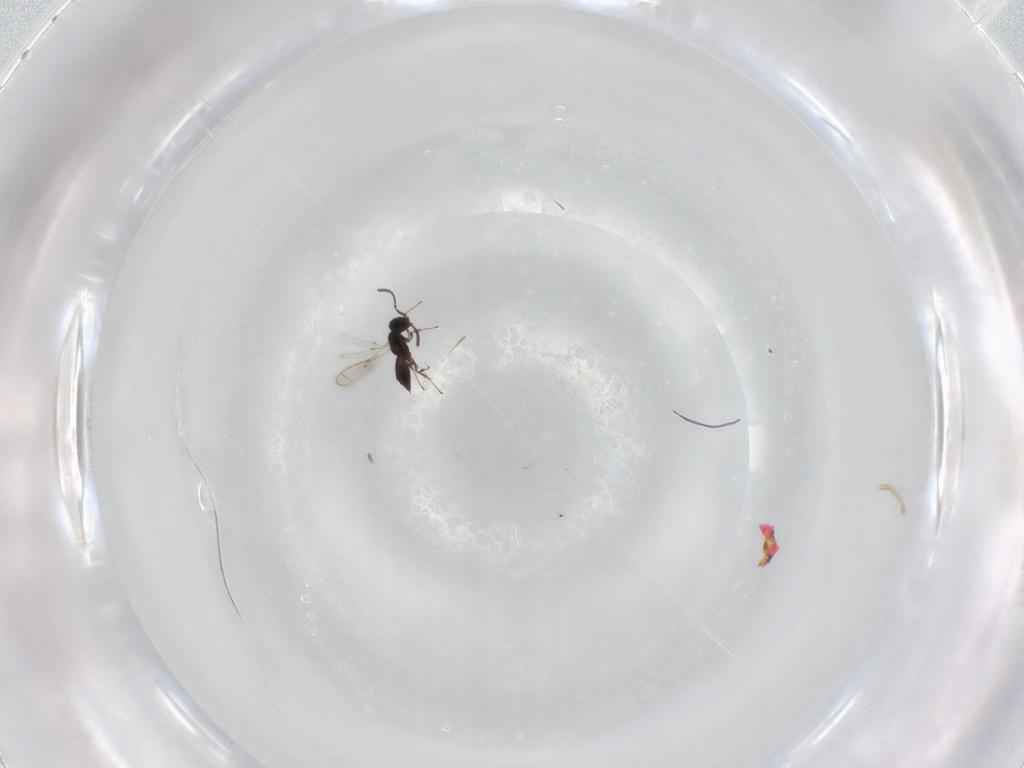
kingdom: Animalia
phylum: Arthropoda
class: Insecta
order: Hymenoptera
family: Scelionidae
